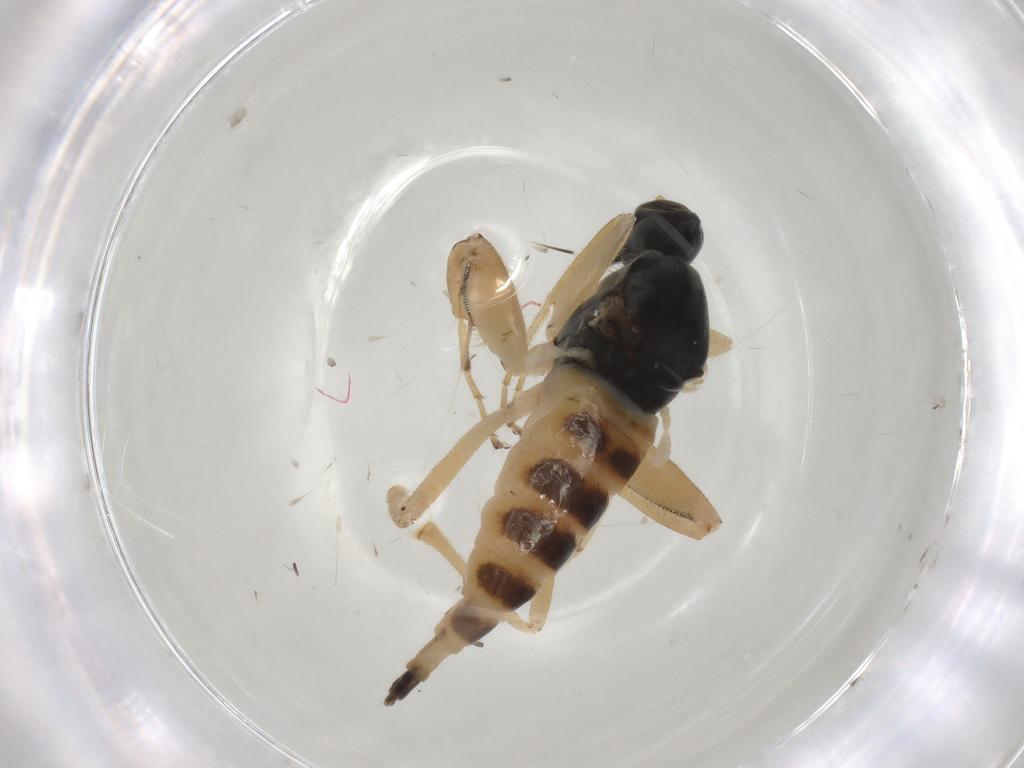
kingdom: Animalia
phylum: Arthropoda
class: Insecta
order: Diptera
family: Hybotidae
